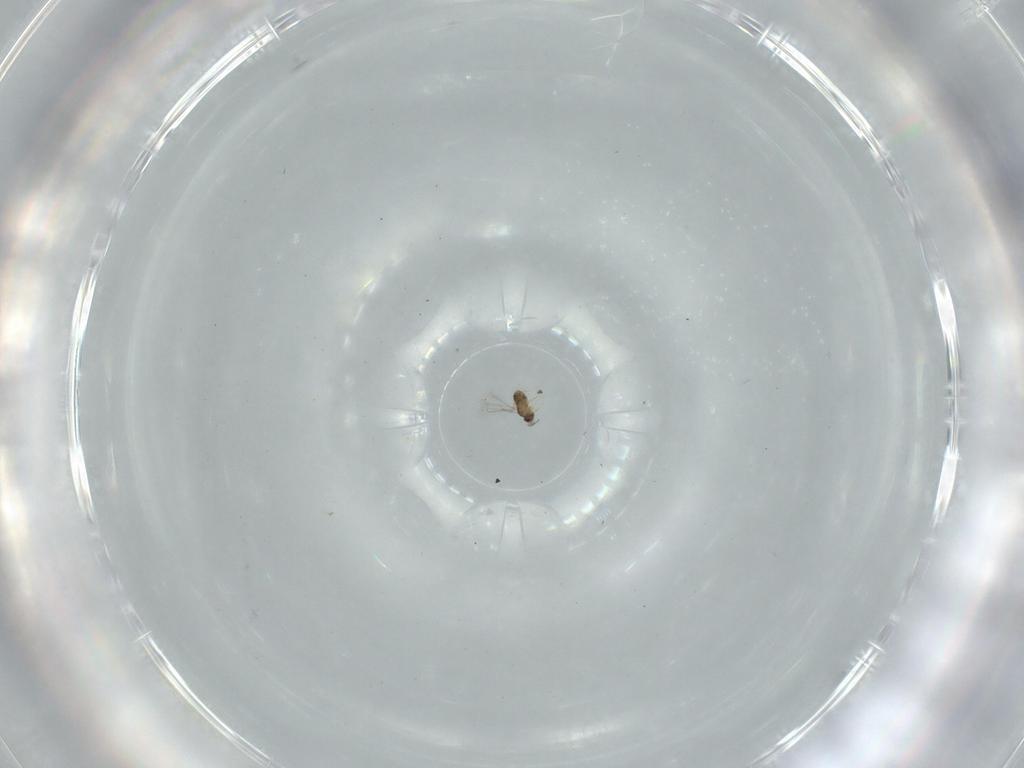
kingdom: Animalia
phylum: Arthropoda
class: Insecta
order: Hymenoptera
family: Mymaridae
